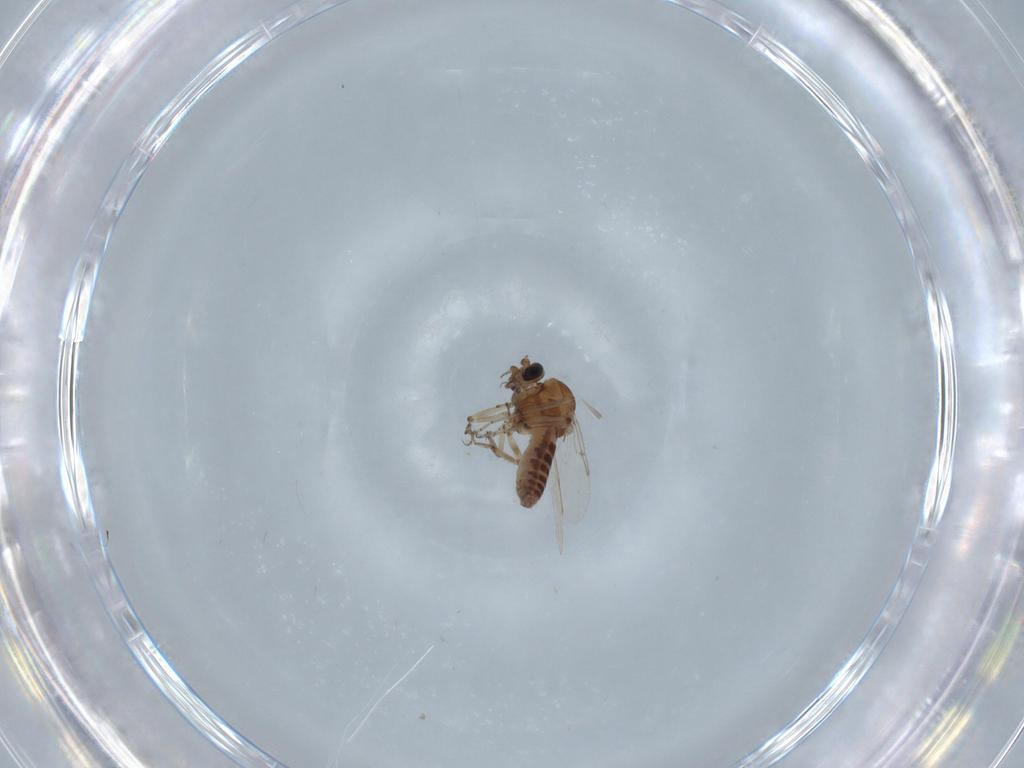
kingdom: Animalia
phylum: Arthropoda
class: Insecta
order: Diptera
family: Ceratopogonidae
